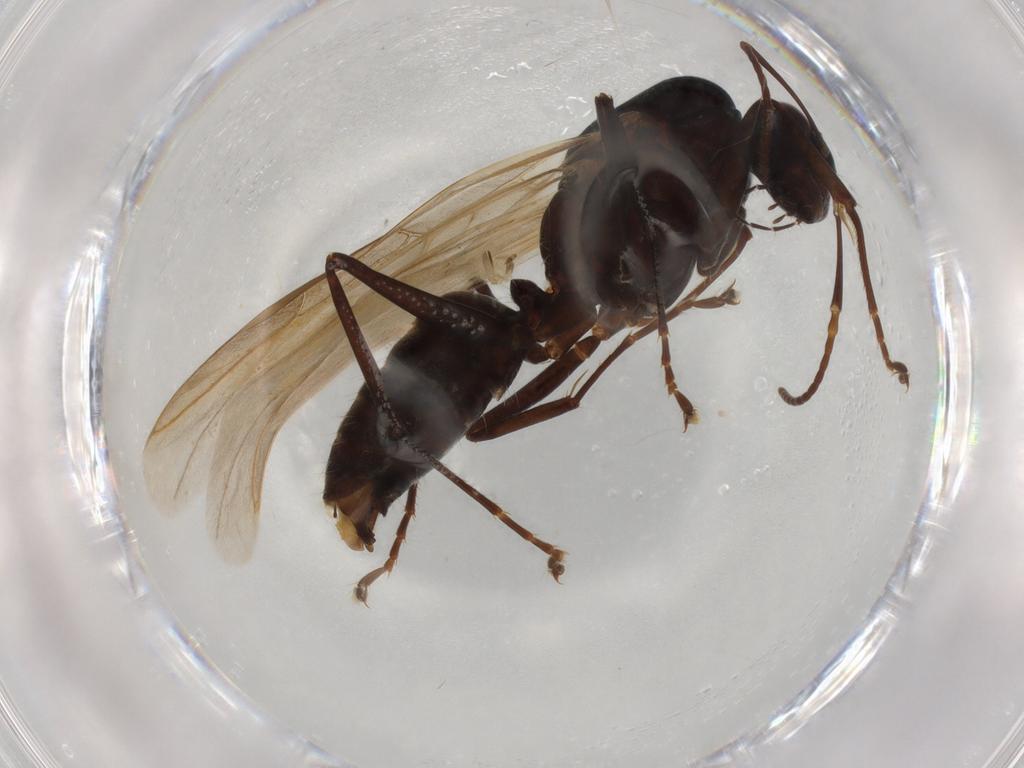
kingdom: Animalia
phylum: Arthropoda
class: Insecta
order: Hymenoptera
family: Formicidae
